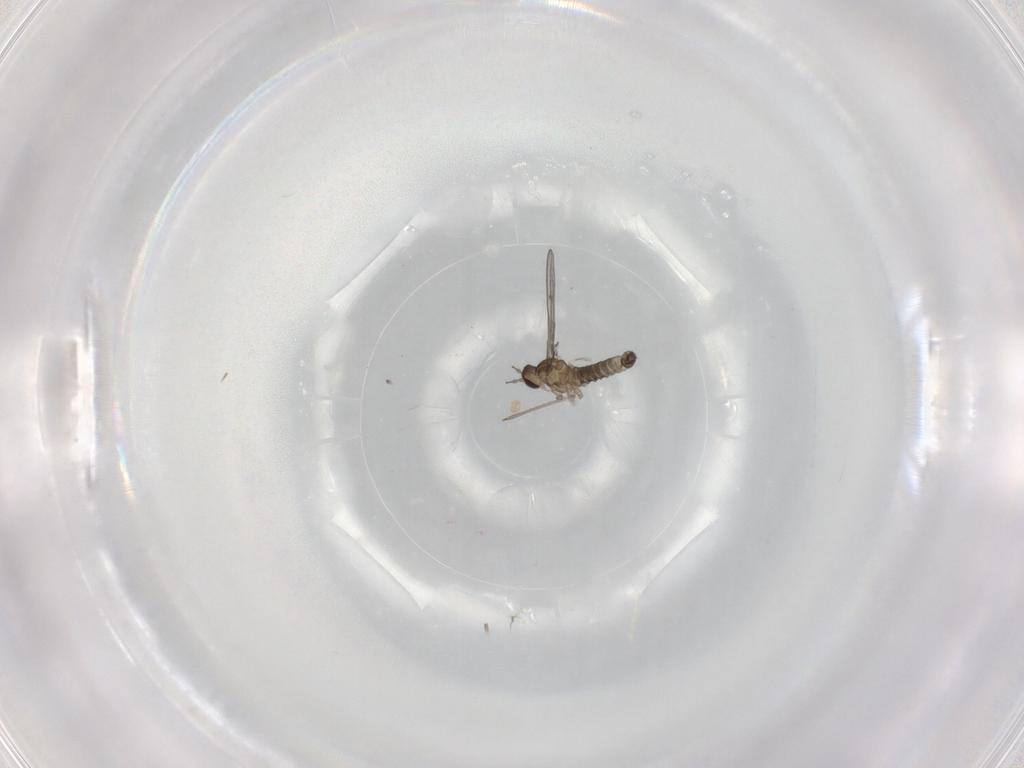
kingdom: Animalia
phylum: Arthropoda
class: Insecta
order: Diptera
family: Cecidomyiidae
